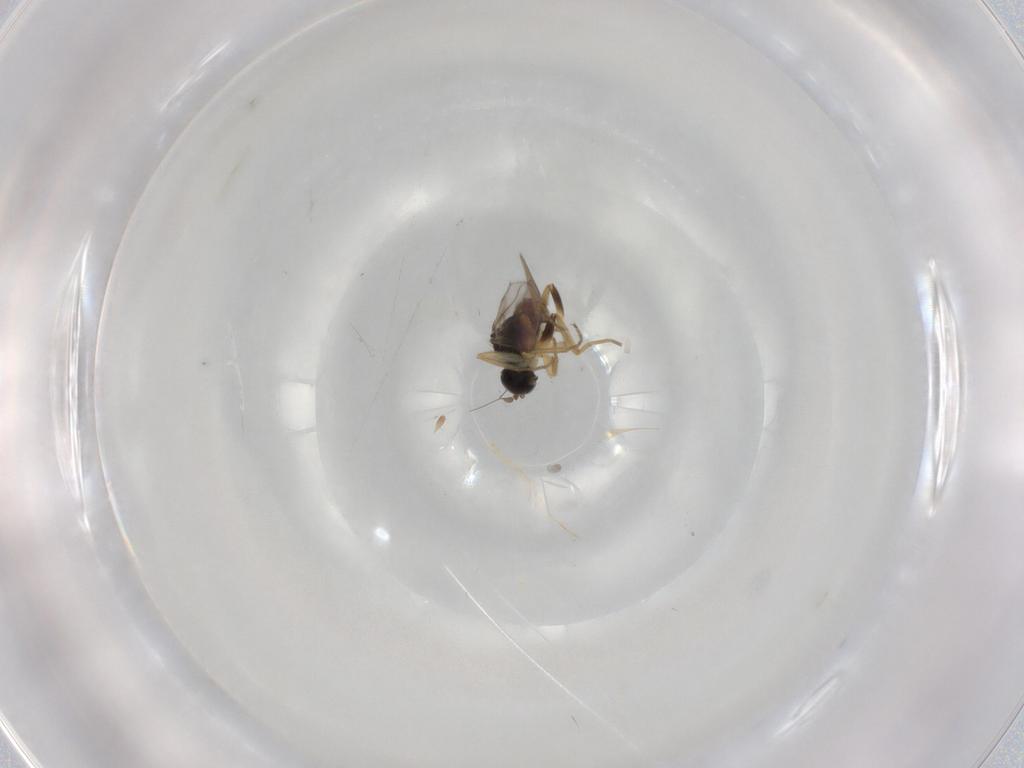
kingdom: Animalia
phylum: Arthropoda
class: Insecta
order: Diptera
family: Hybotidae
